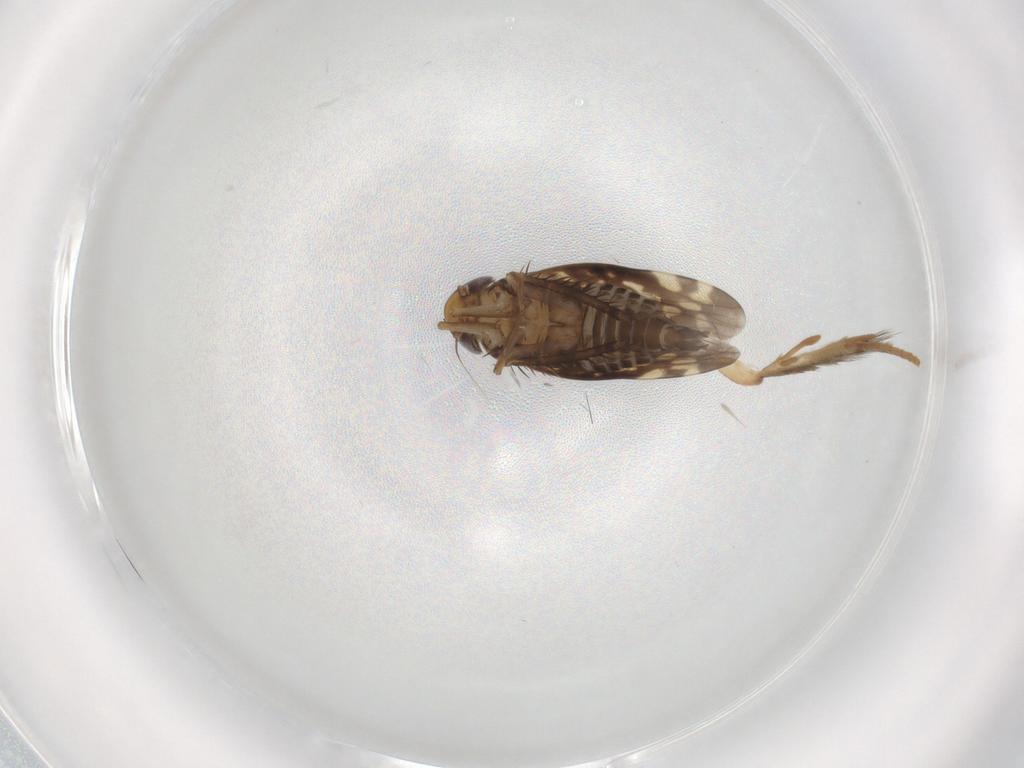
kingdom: Animalia
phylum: Arthropoda
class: Insecta
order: Hemiptera
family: Cicadellidae
